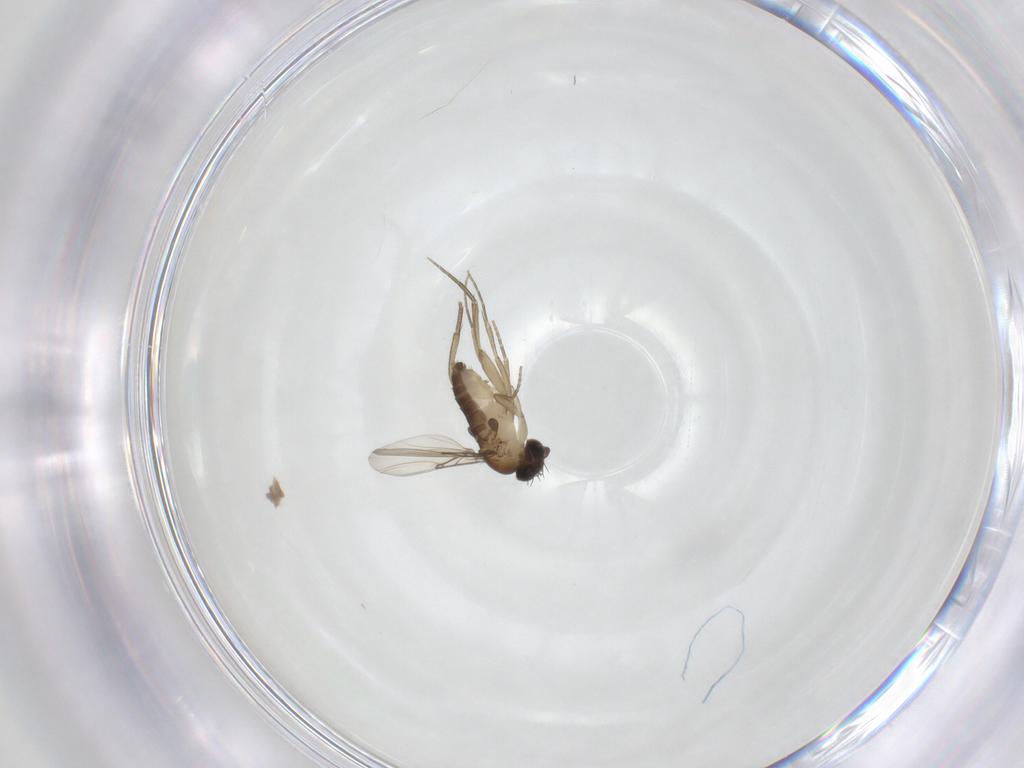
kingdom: Animalia
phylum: Arthropoda
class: Insecta
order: Diptera
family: Phoridae
